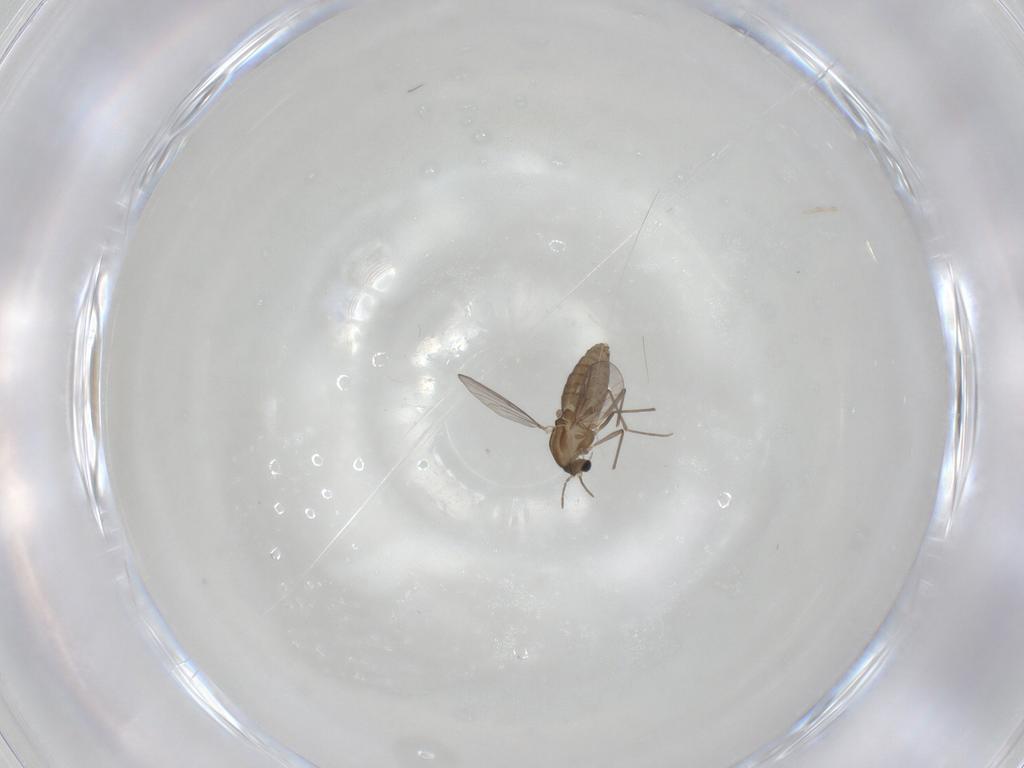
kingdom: Animalia
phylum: Arthropoda
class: Insecta
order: Diptera
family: Chironomidae
